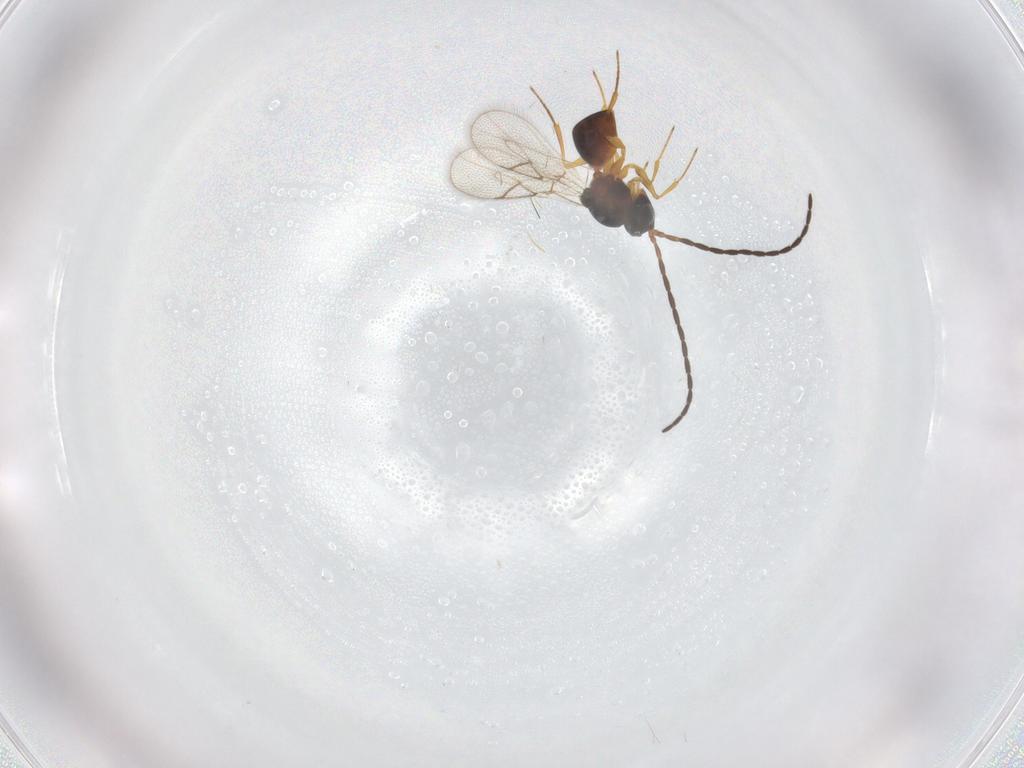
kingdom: Animalia
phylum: Arthropoda
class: Insecta
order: Hymenoptera
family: Figitidae
